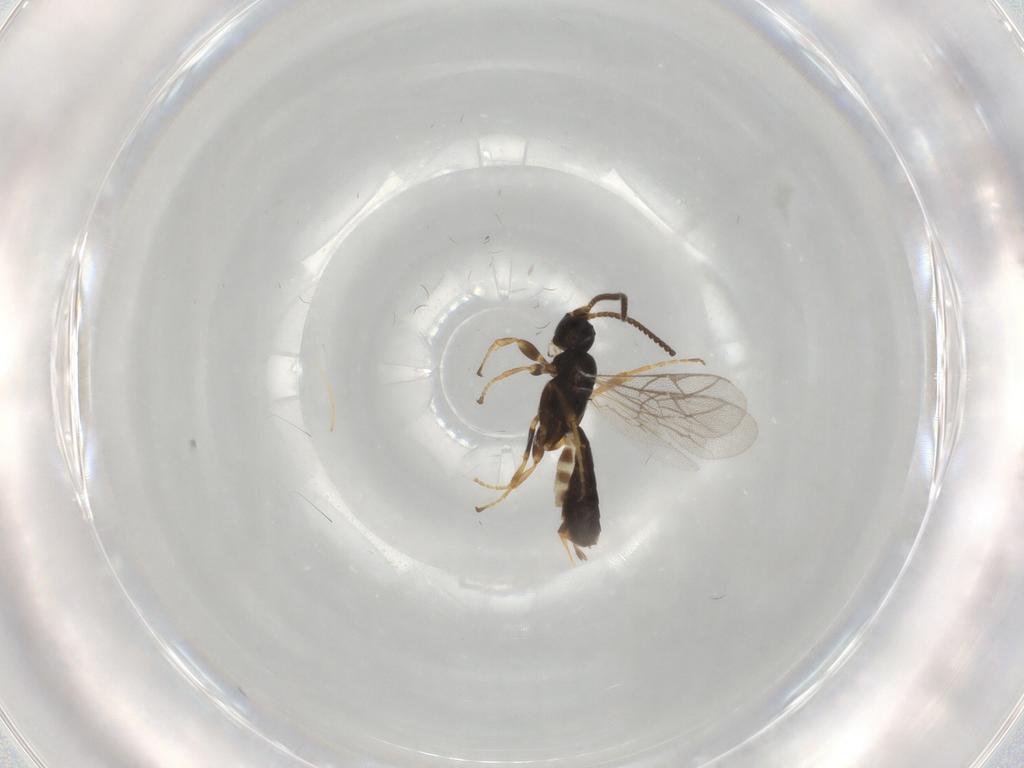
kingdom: Animalia
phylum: Arthropoda
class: Insecta
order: Hymenoptera
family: Ichneumonidae
